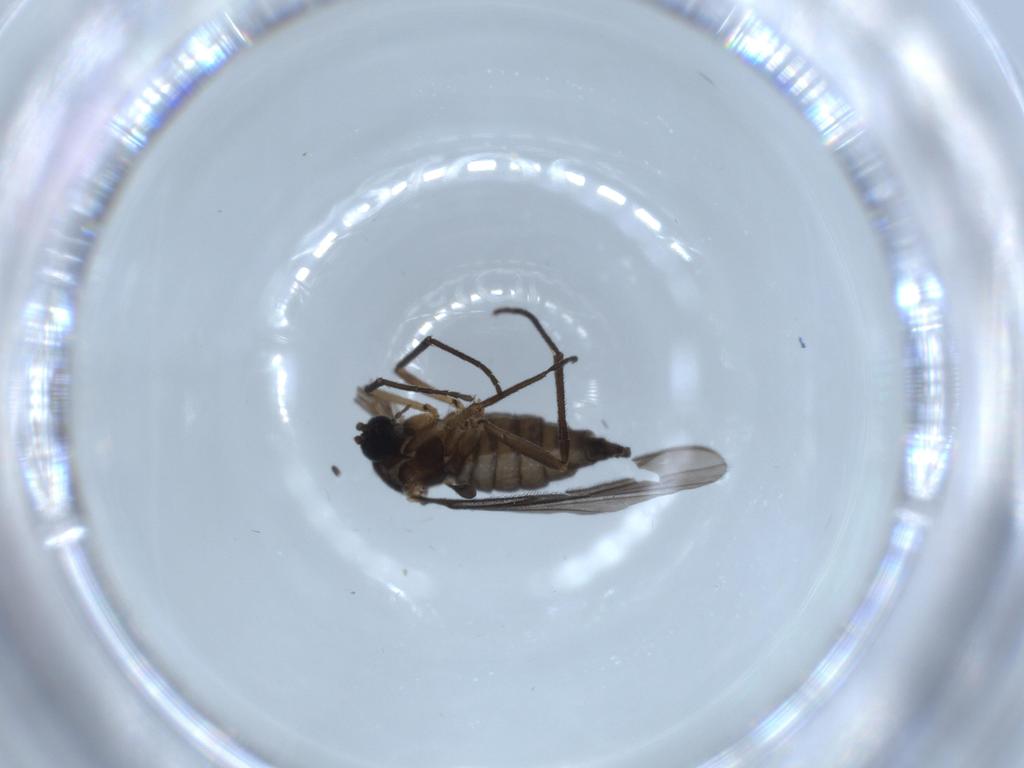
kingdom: Animalia
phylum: Arthropoda
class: Insecta
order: Diptera
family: Sciaridae
